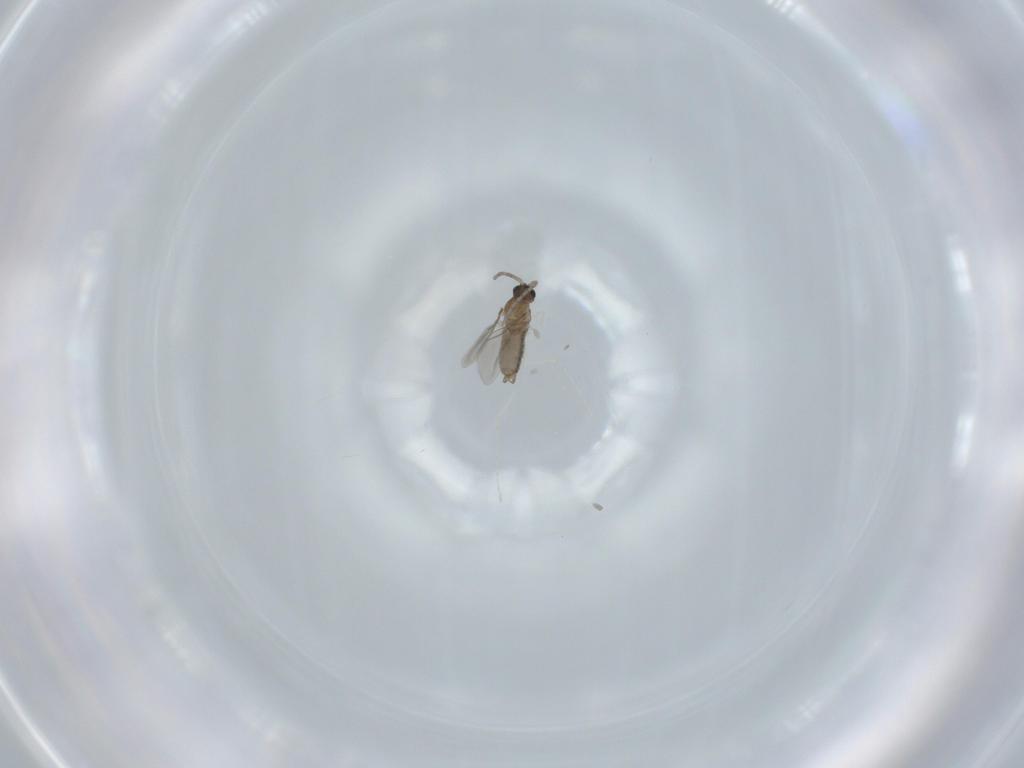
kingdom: Animalia
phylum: Arthropoda
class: Insecta
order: Diptera
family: Cecidomyiidae
